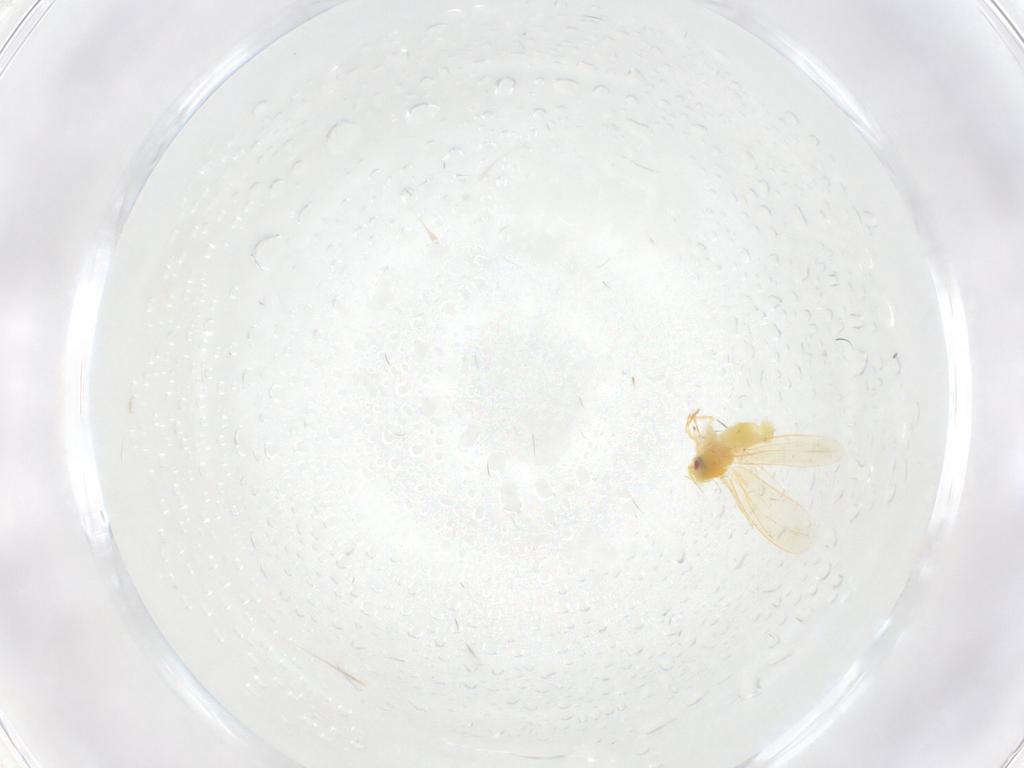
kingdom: Animalia
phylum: Arthropoda
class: Insecta
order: Hemiptera
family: Aleyrodidae
